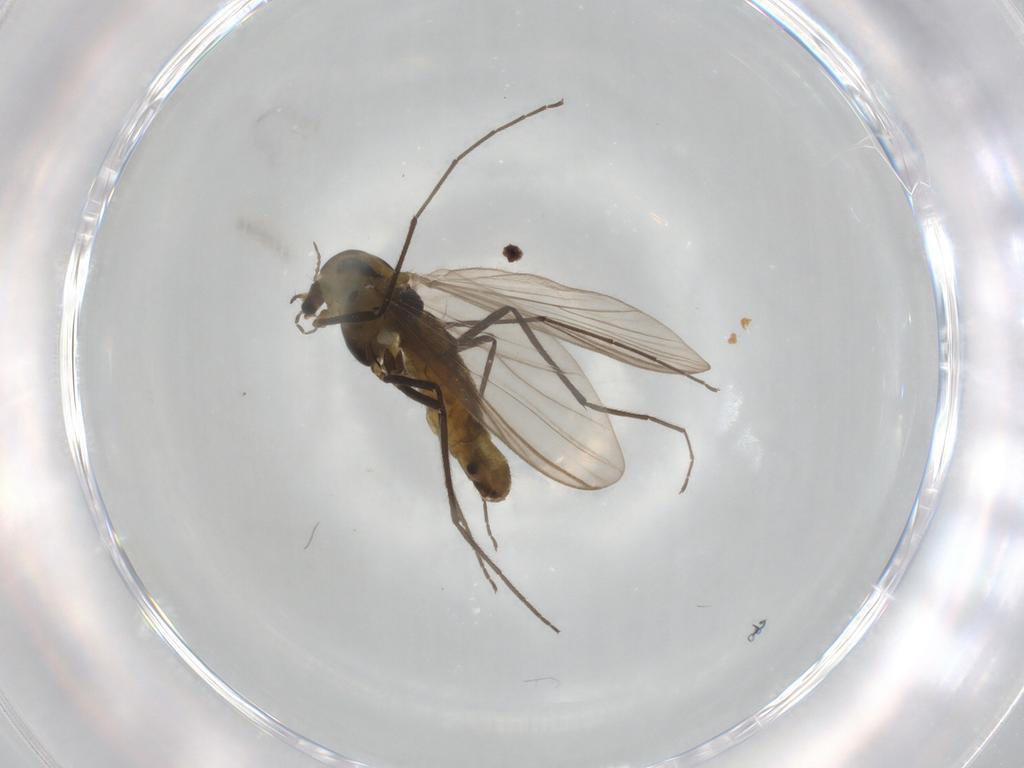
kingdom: Animalia
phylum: Arthropoda
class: Insecta
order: Diptera
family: Chironomidae
